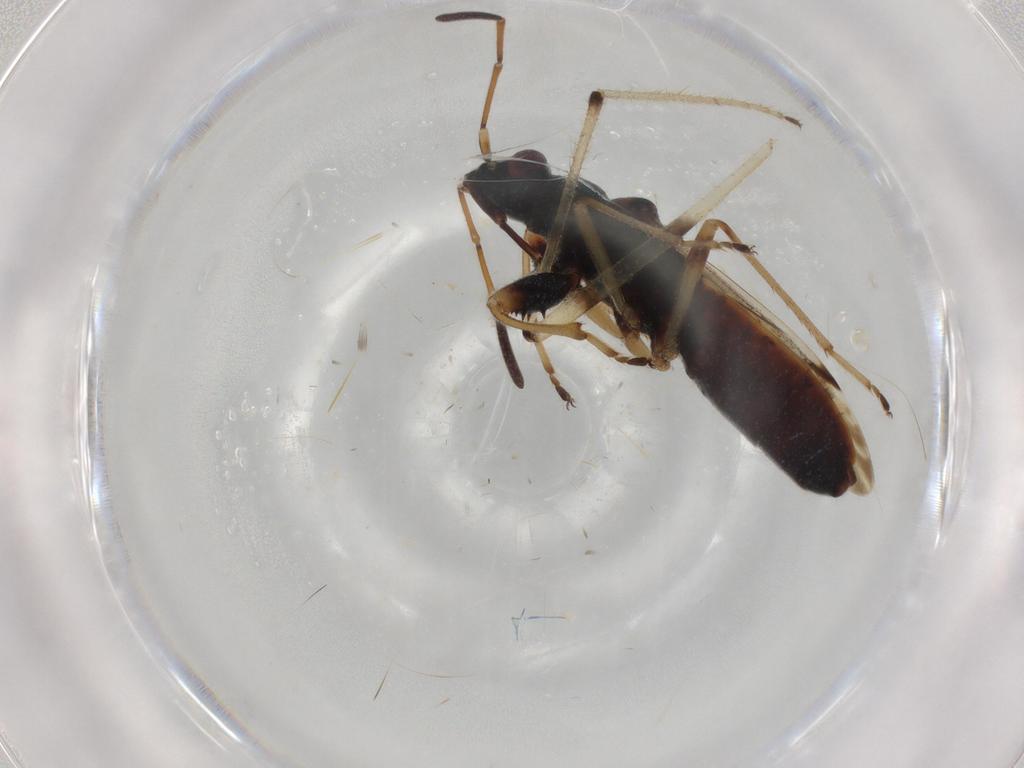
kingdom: Animalia
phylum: Arthropoda
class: Insecta
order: Hemiptera
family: Rhyparochromidae
